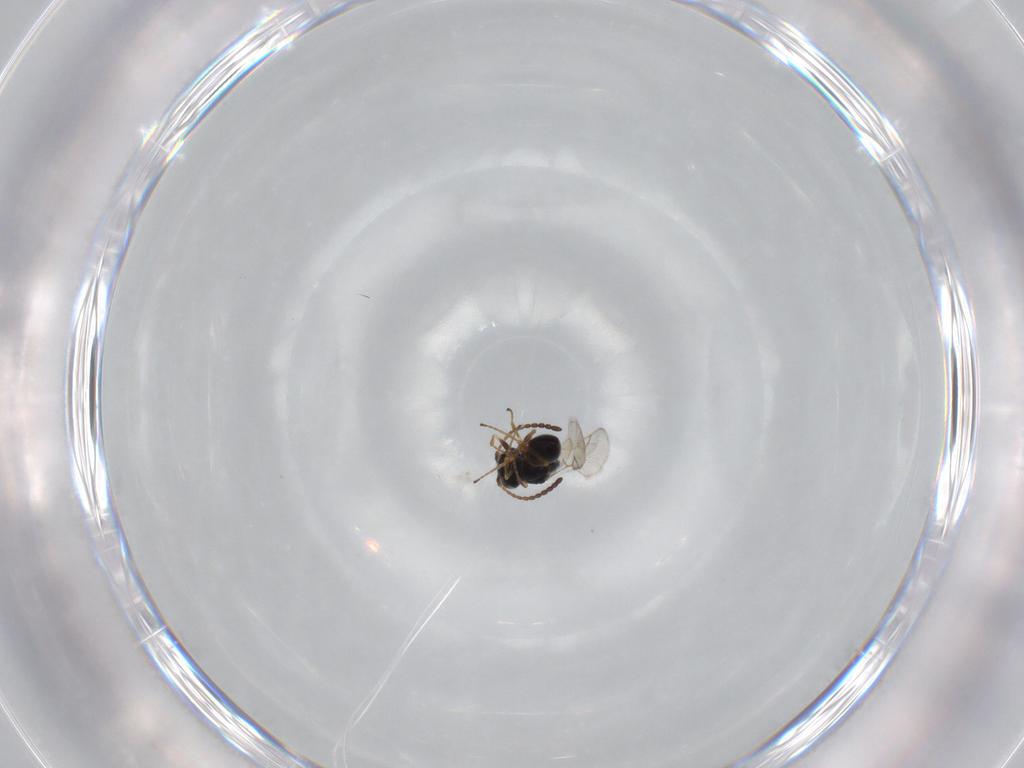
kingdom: Animalia
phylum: Arthropoda
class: Insecta
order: Hymenoptera
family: Figitidae
